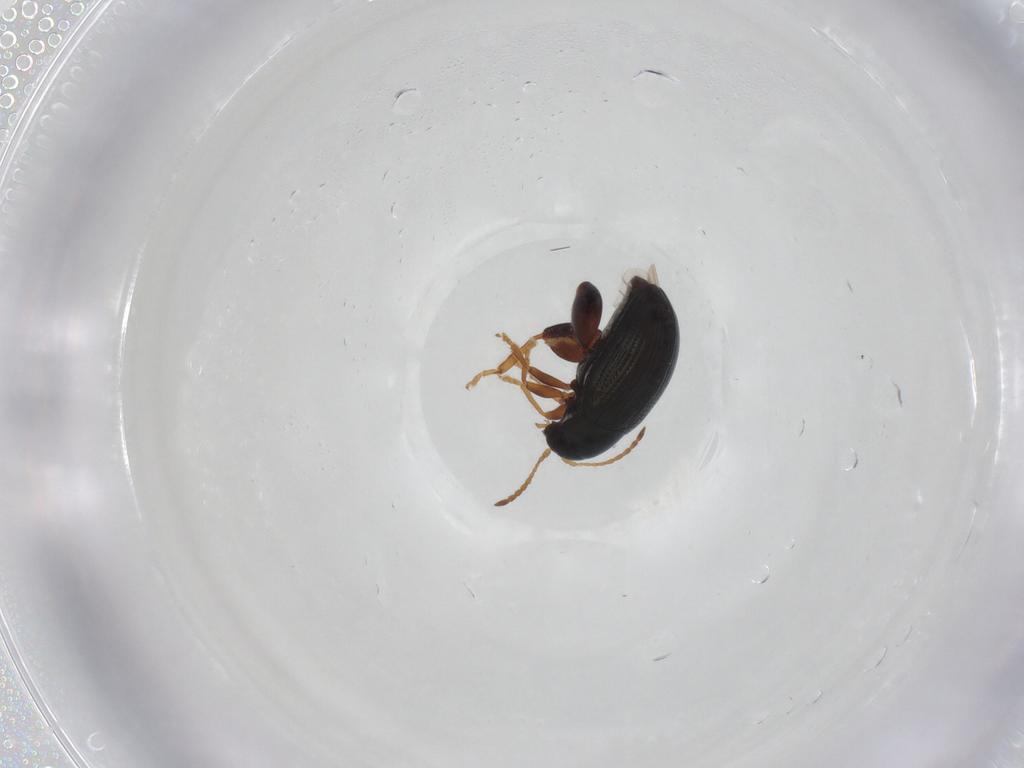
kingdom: Animalia
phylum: Arthropoda
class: Insecta
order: Coleoptera
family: Chrysomelidae
